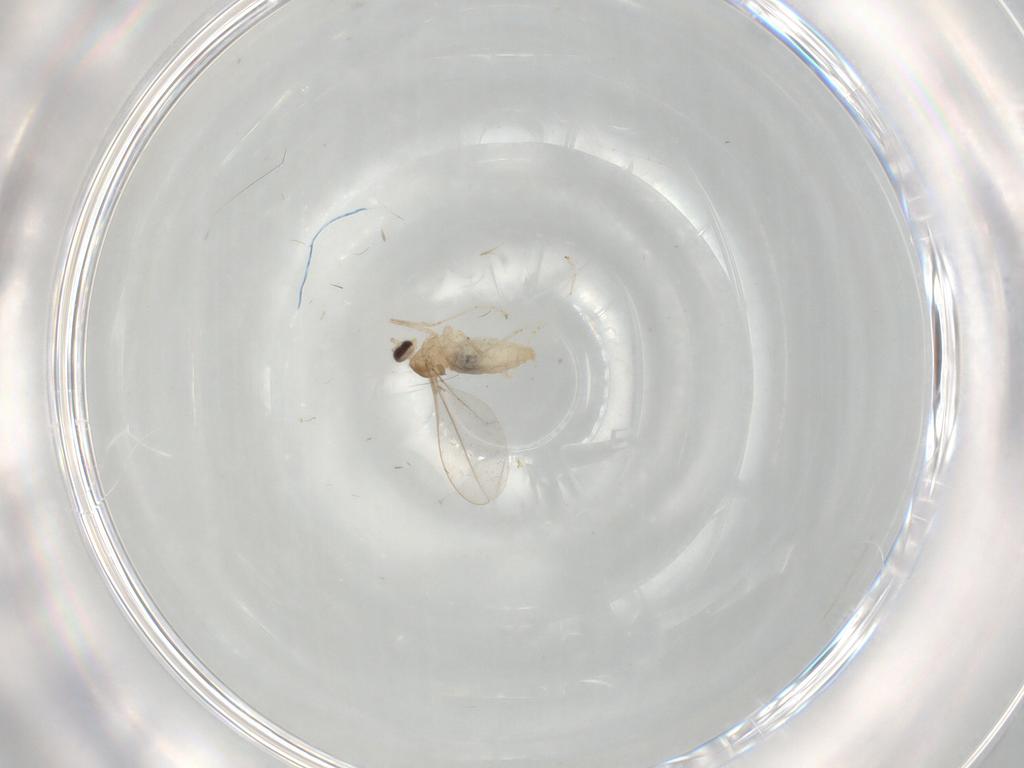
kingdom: Animalia
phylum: Arthropoda
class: Insecta
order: Diptera
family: Cecidomyiidae
